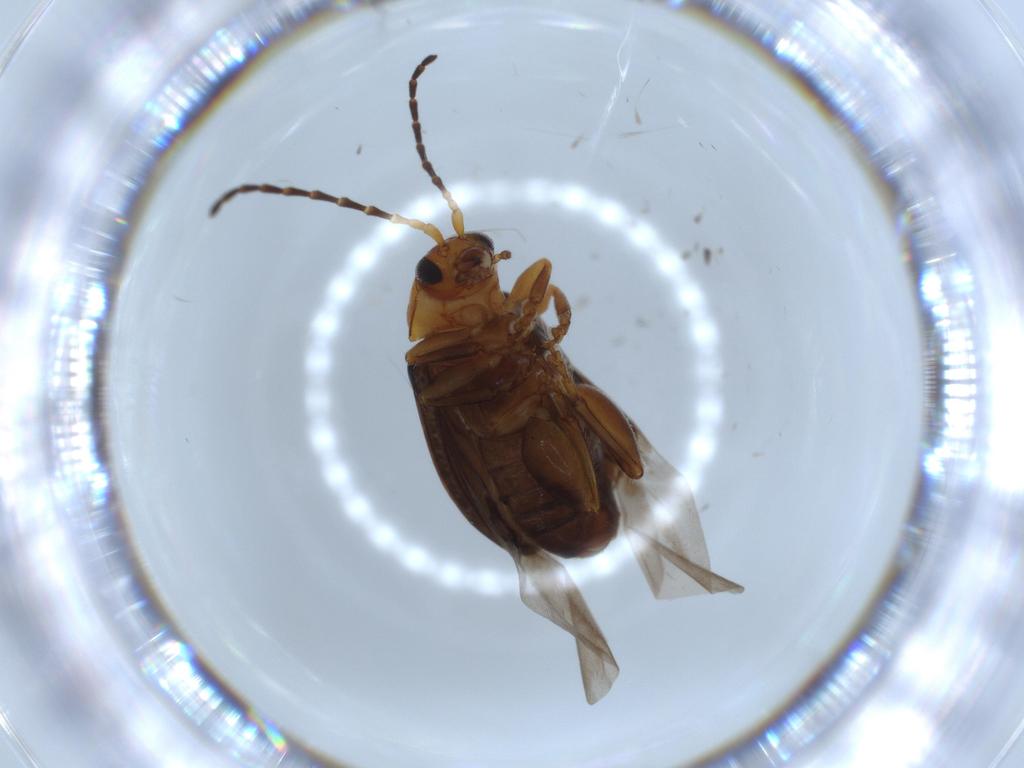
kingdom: Animalia
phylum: Arthropoda
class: Insecta
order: Coleoptera
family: Chrysomelidae
